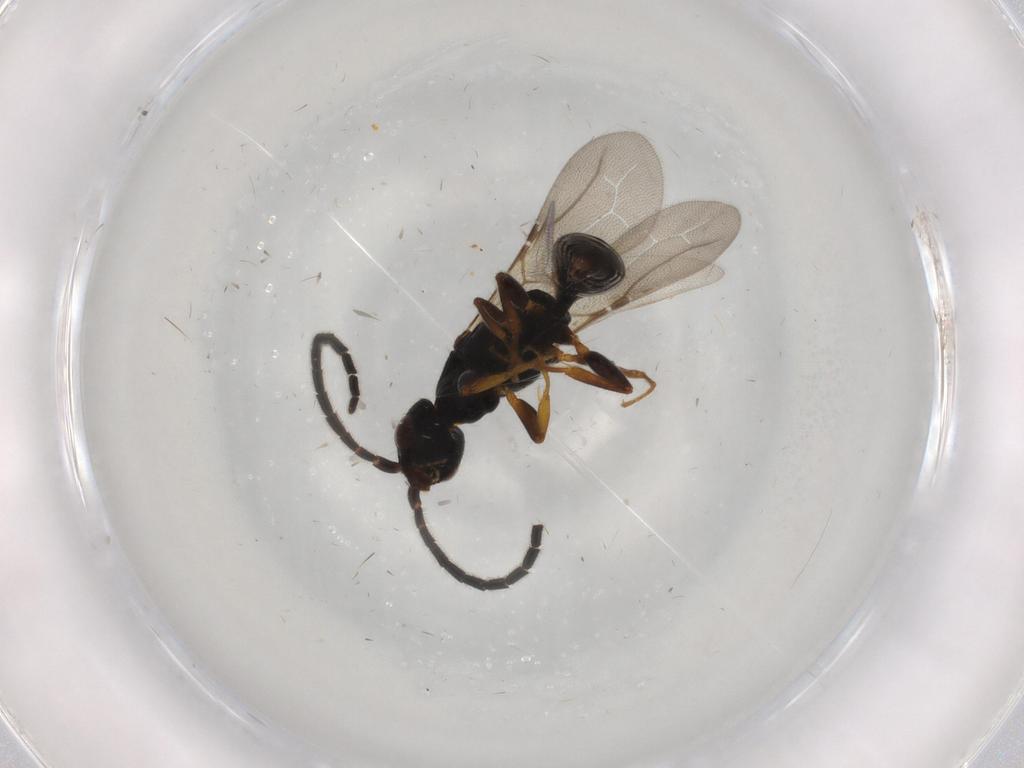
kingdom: Animalia
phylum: Arthropoda
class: Insecta
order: Hymenoptera
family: Bethylidae
